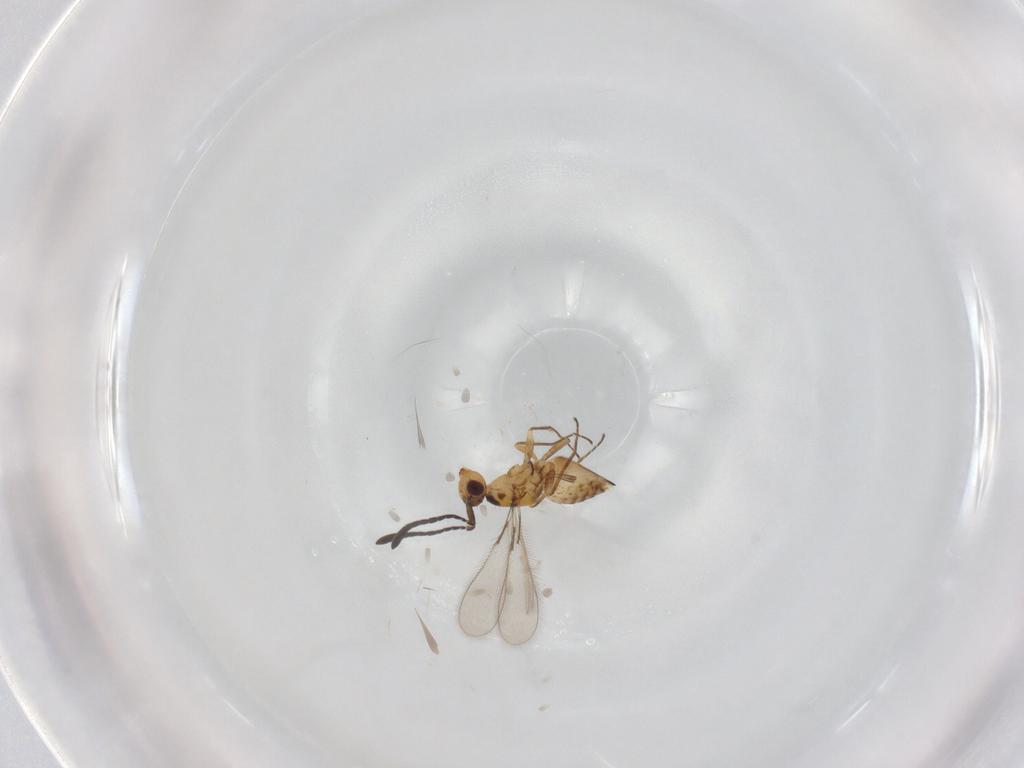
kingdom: Animalia
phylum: Arthropoda
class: Insecta
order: Hymenoptera
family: Mymaridae
